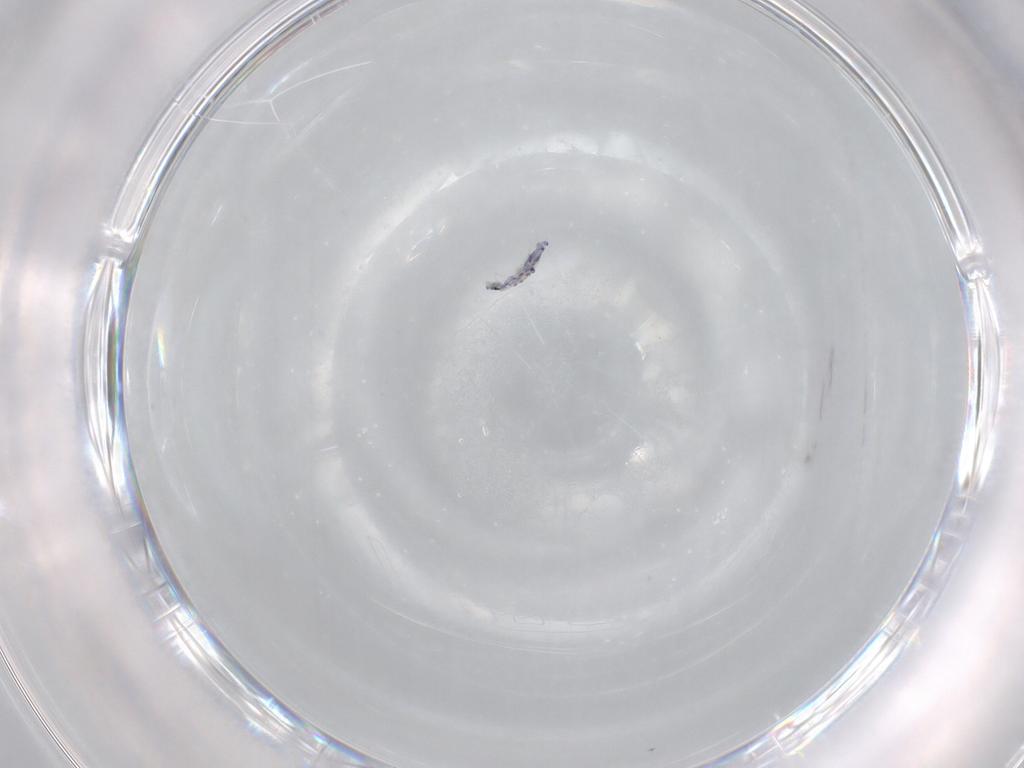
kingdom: Animalia
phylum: Arthropoda
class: Collembola
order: Entomobryomorpha
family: Entomobryidae
